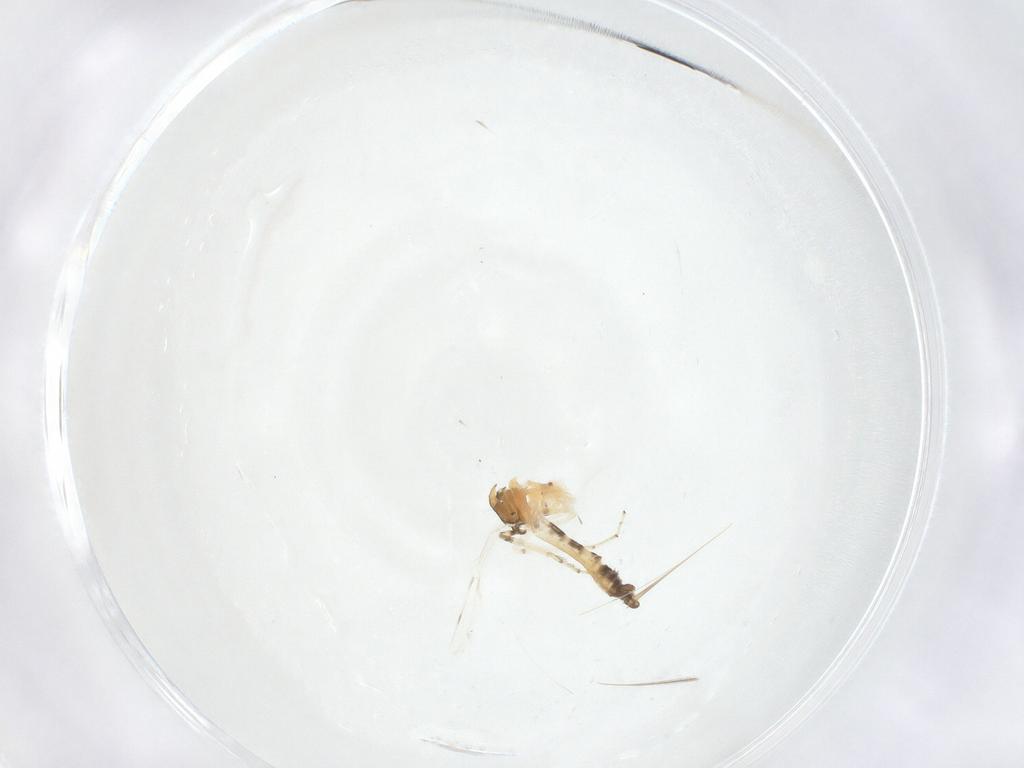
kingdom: Animalia
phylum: Arthropoda
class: Insecta
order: Diptera
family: Ceratopogonidae
